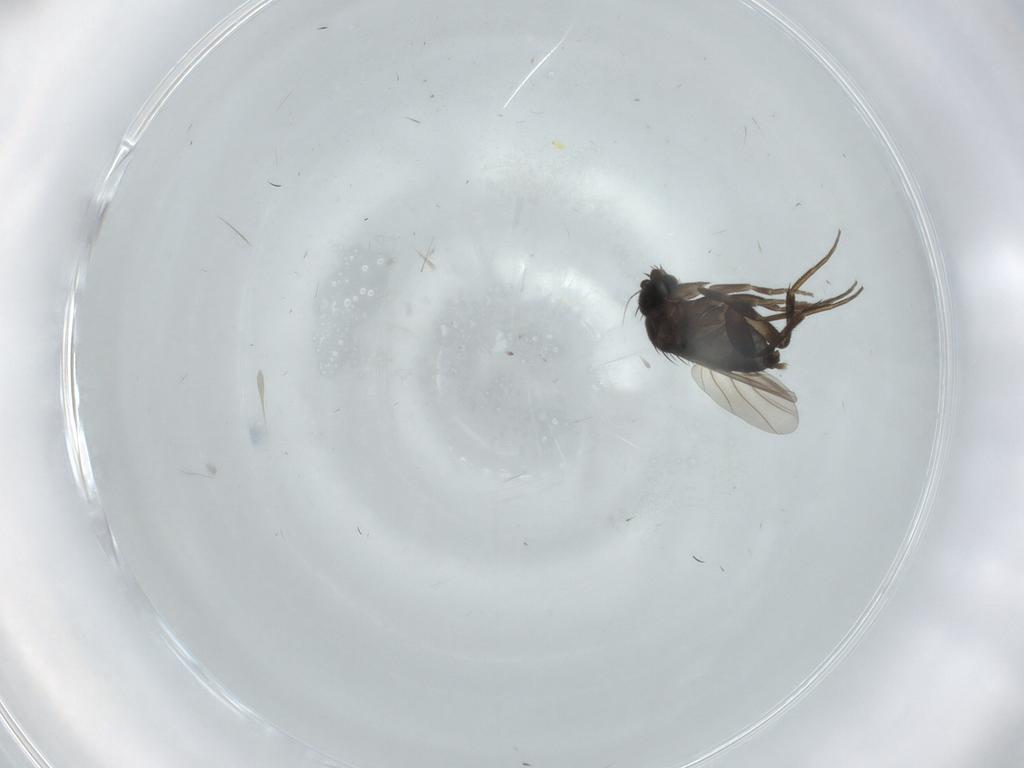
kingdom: Animalia
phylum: Arthropoda
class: Insecta
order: Diptera
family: Phoridae
